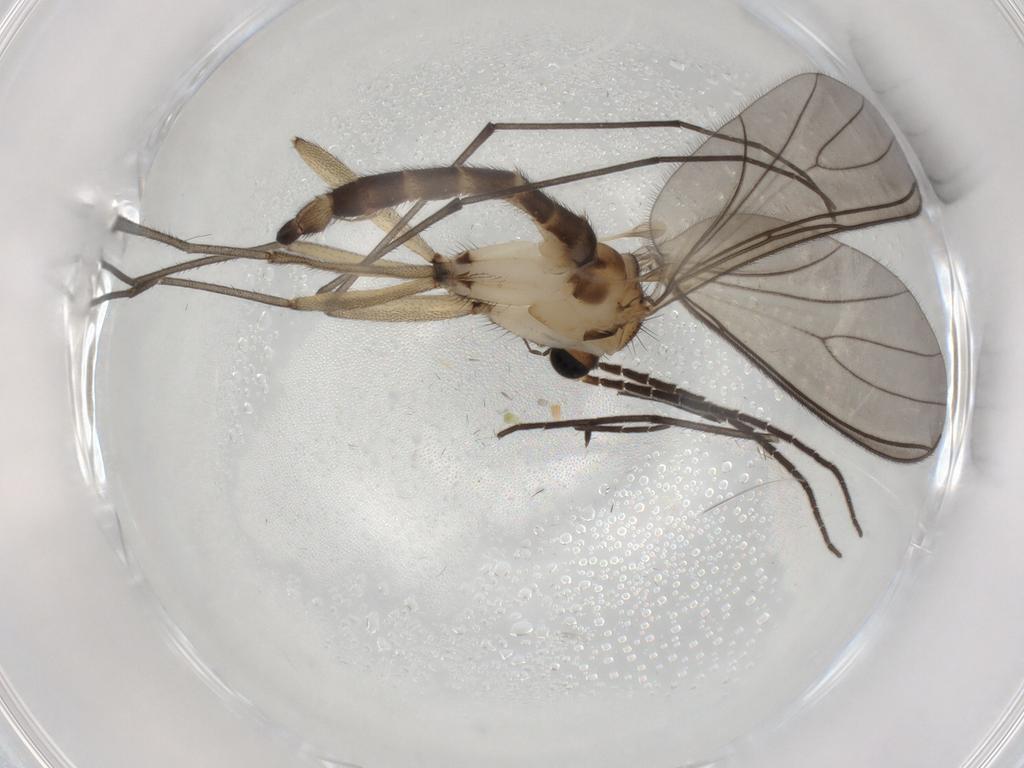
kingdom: Animalia
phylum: Arthropoda
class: Insecta
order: Diptera
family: Sciaridae
